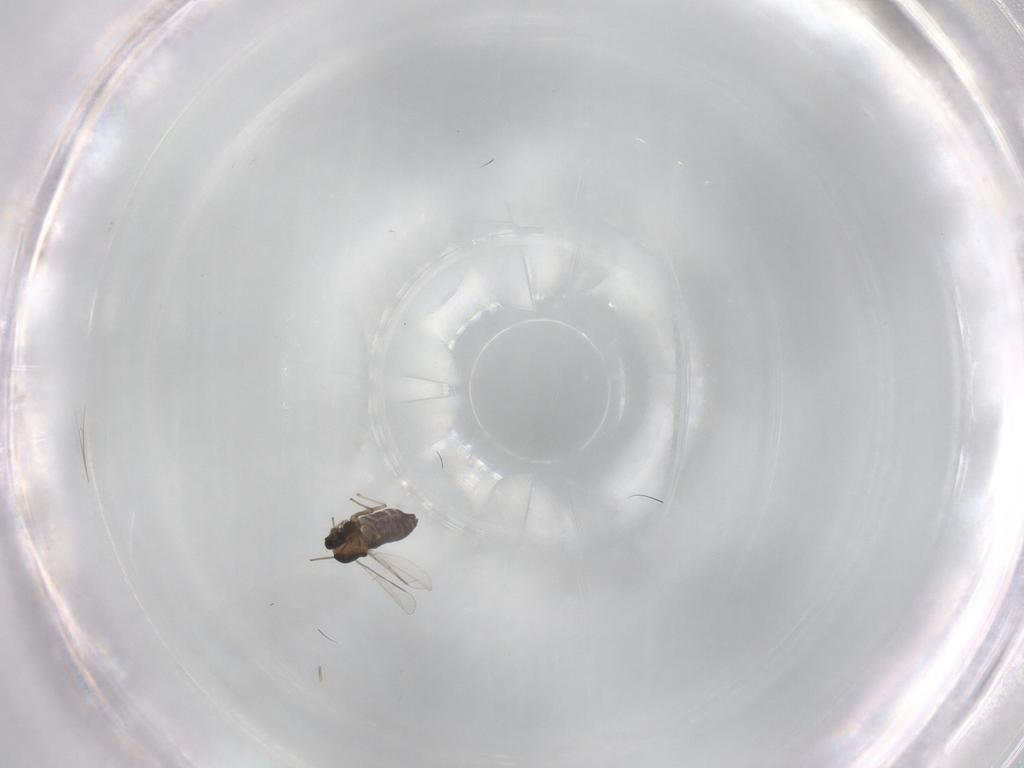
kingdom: Animalia
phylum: Arthropoda
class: Insecta
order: Diptera
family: Chironomidae
